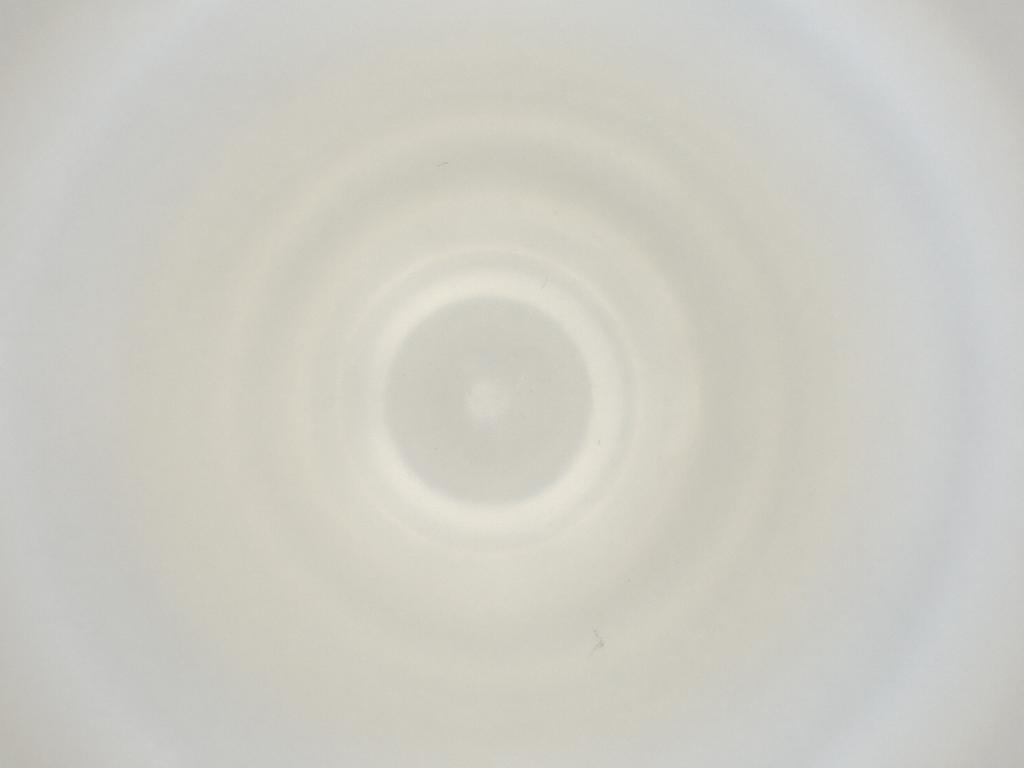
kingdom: Animalia
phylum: Arthropoda
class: Insecta
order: Diptera
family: Cecidomyiidae
